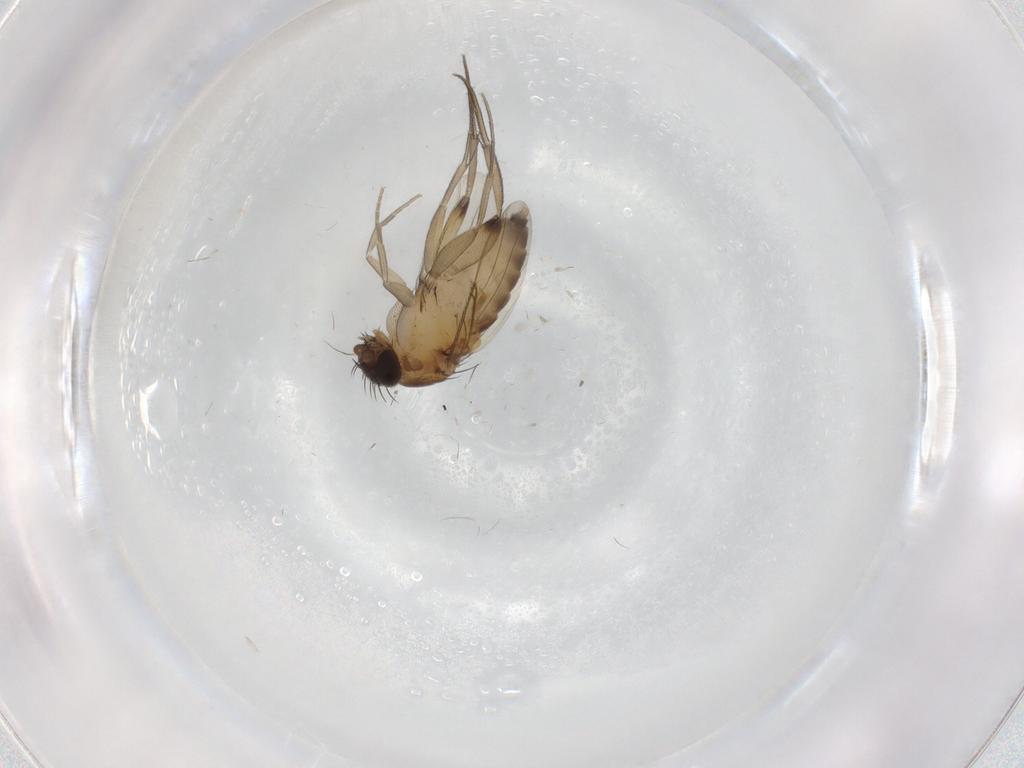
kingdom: Animalia
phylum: Arthropoda
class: Insecta
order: Diptera
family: Phoridae
